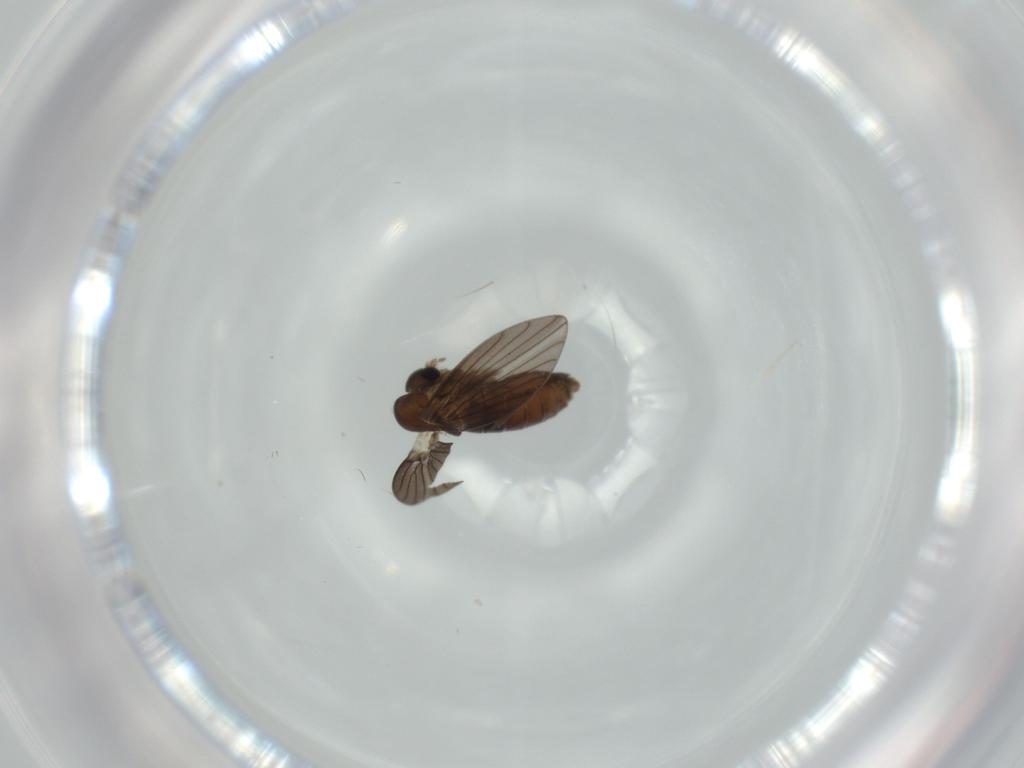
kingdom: Animalia
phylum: Arthropoda
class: Insecta
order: Diptera
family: Psychodidae
